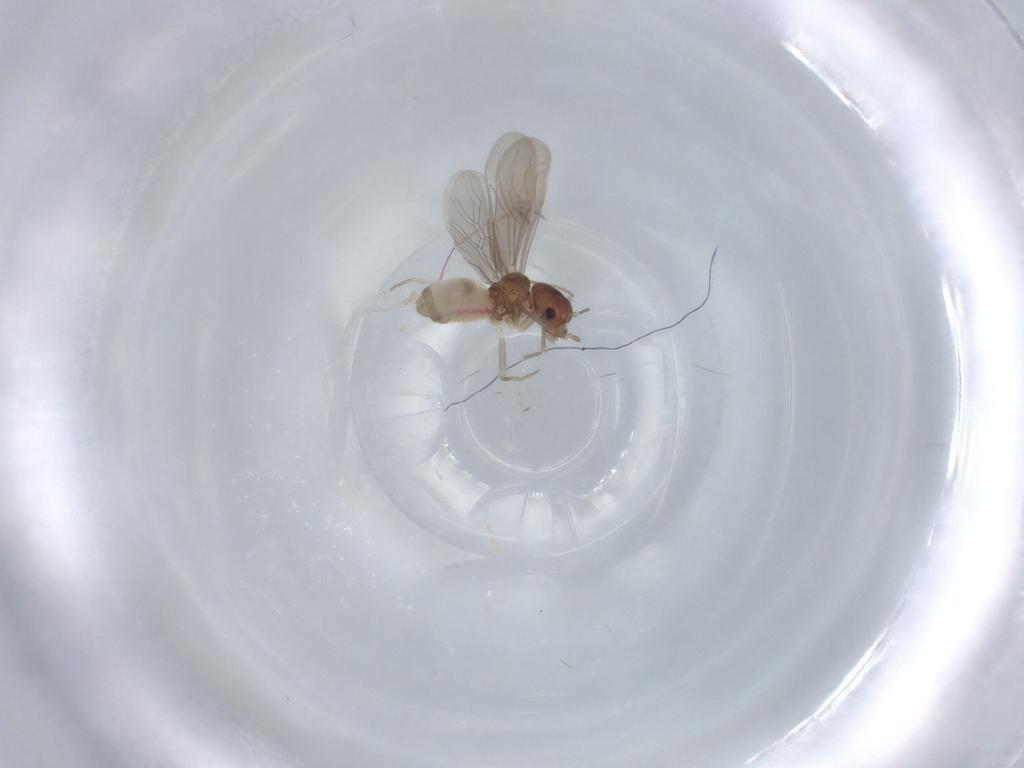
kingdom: Animalia
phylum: Arthropoda
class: Insecta
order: Psocodea
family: Asiopsocidae
